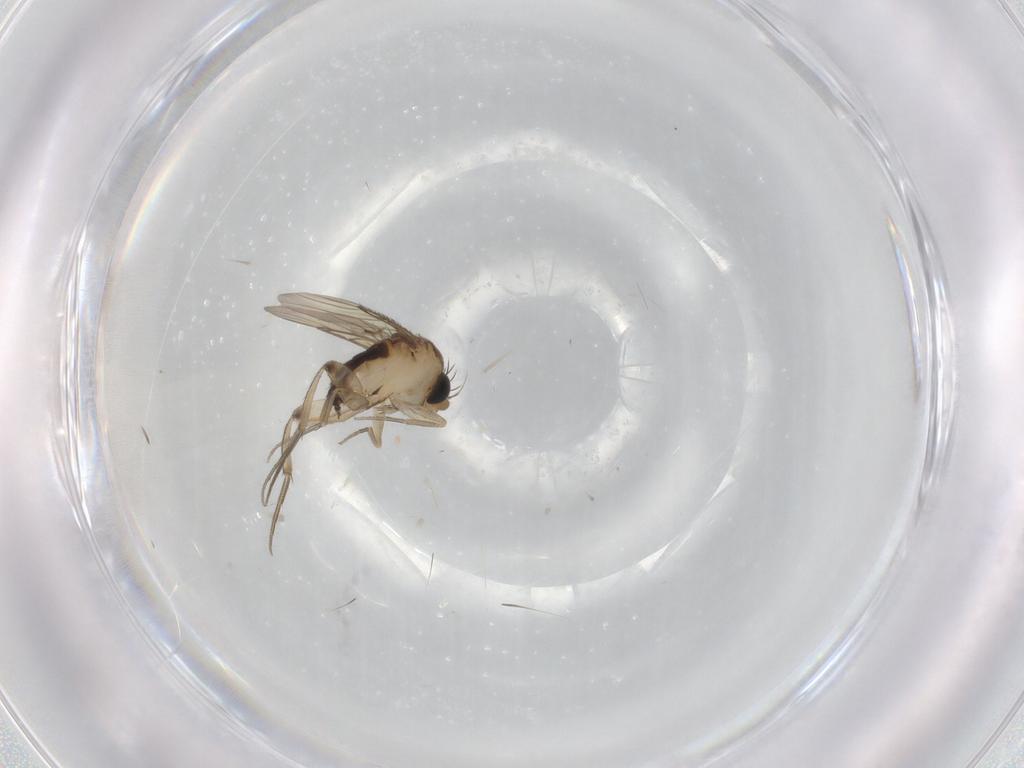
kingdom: Animalia
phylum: Arthropoda
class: Insecta
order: Diptera
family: Phoridae
